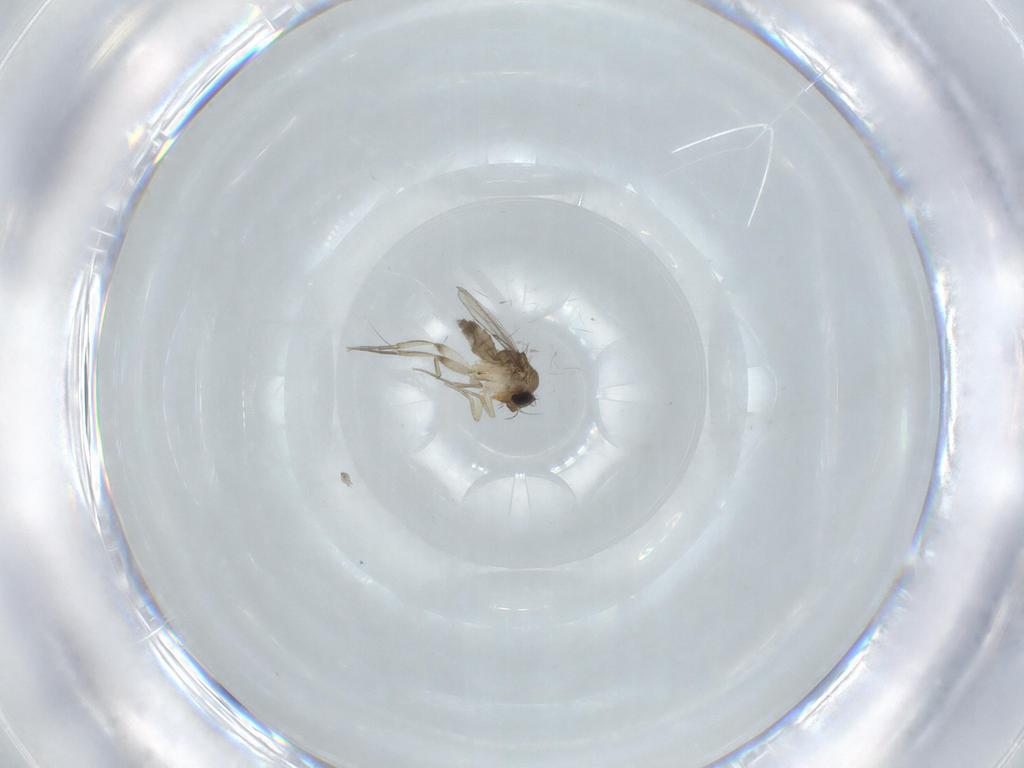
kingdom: Animalia
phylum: Arthropoda
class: Insecta
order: Diptera
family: Phoridae
